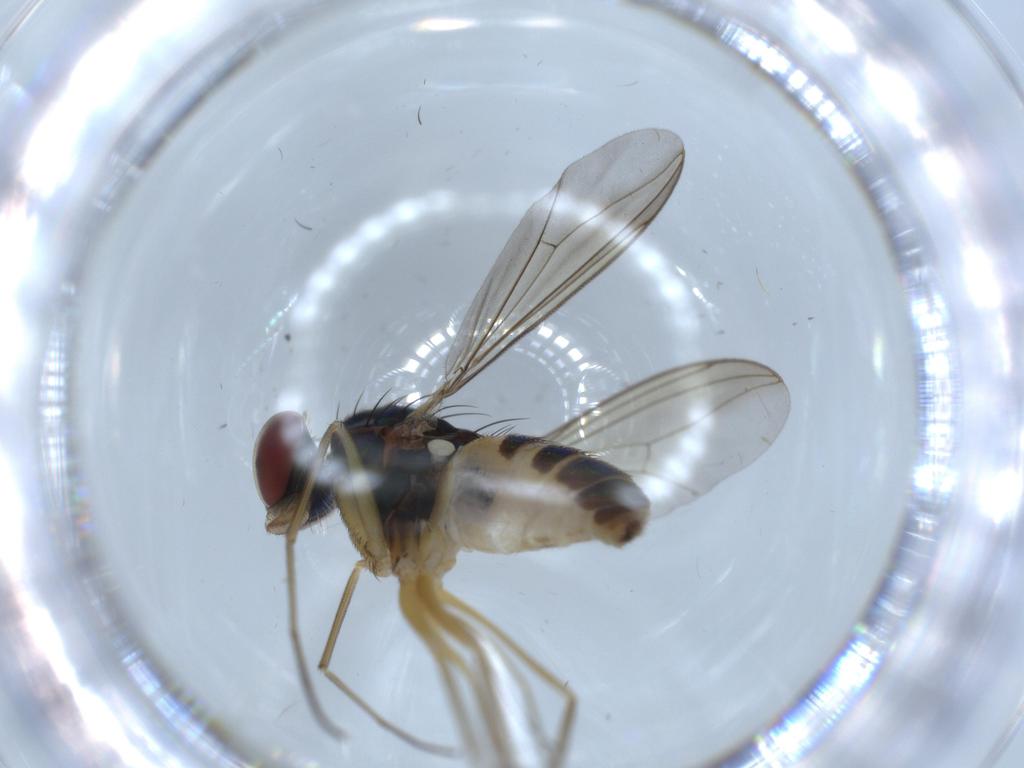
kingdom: Animalia
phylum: Arthropoda
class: Insecta
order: Diptera
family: Dolichopodidae
